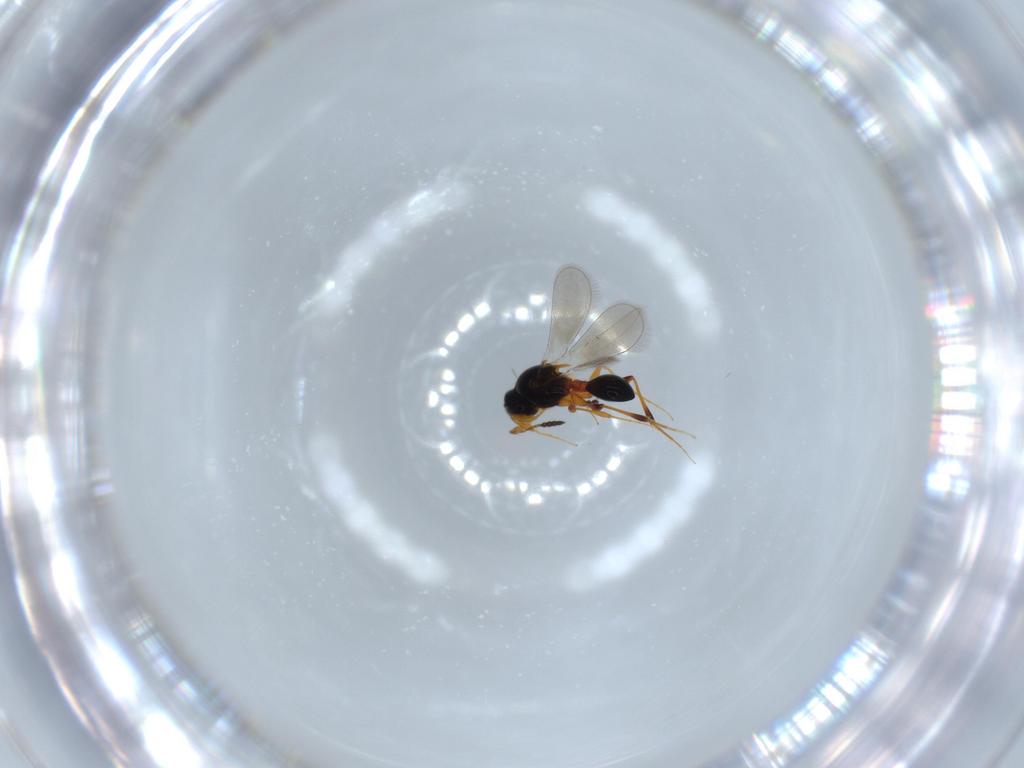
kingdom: Animalia
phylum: Arthropoda
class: Insecta
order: Hymenoptera
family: Platygastridae
